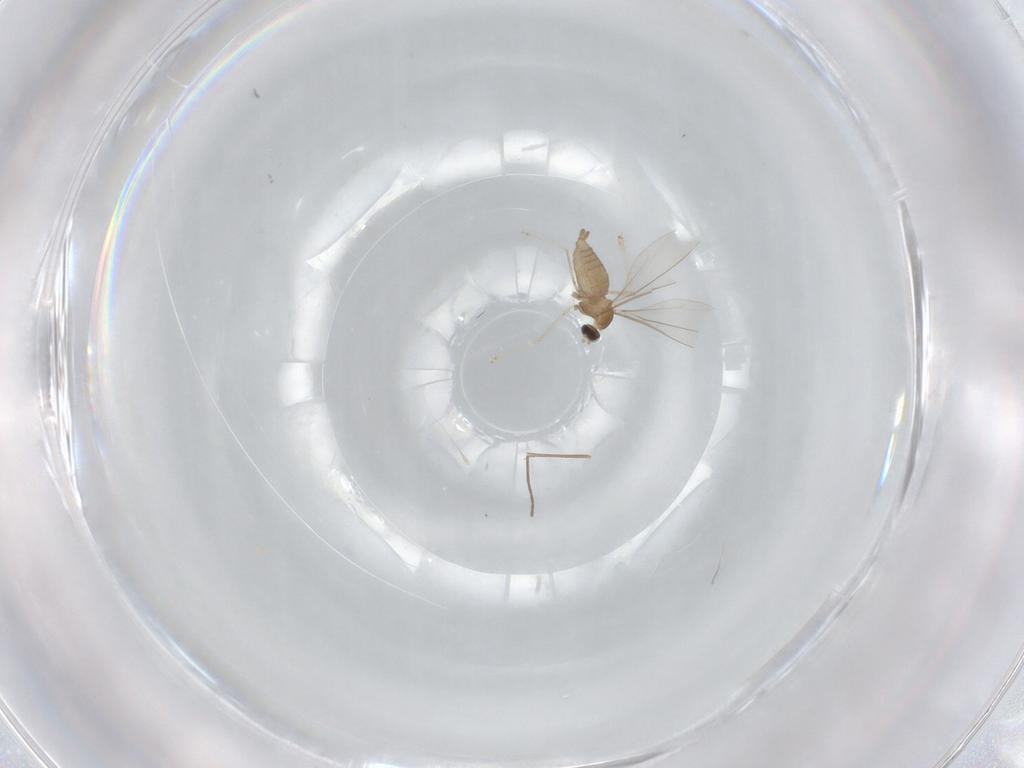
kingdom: Animalia
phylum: Arthropoda
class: Insecta
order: Diptera
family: Cecidomyiidae
